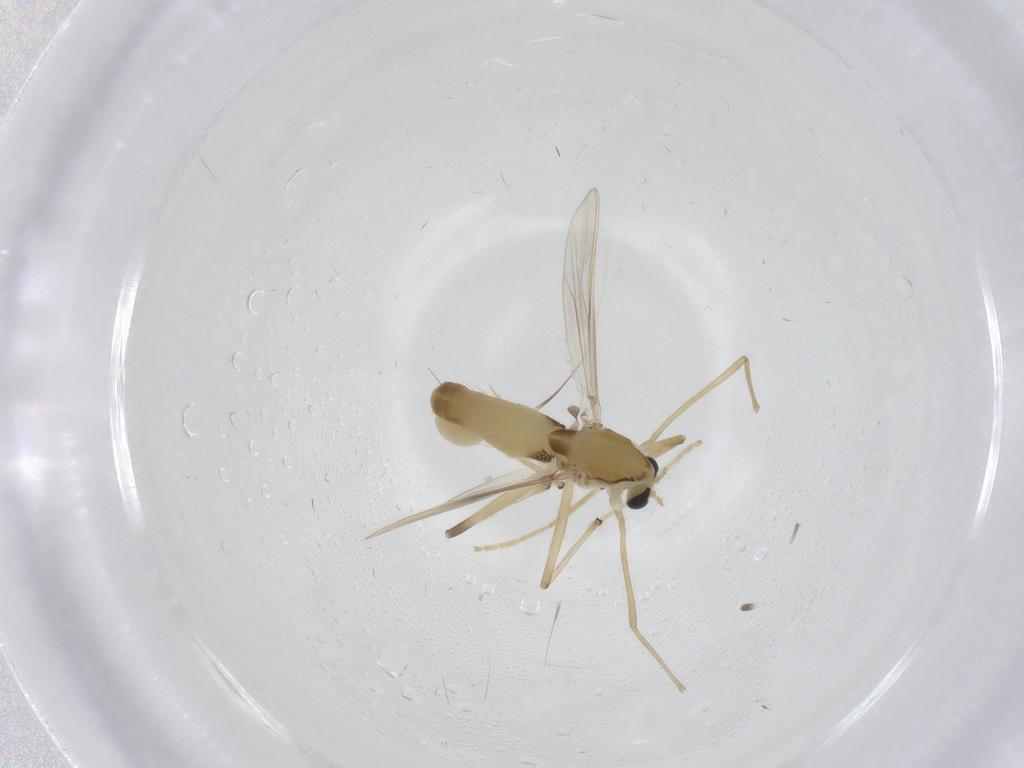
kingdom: Animalia
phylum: Arthropoda
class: Insecta
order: Diptera
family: Chironomidae
